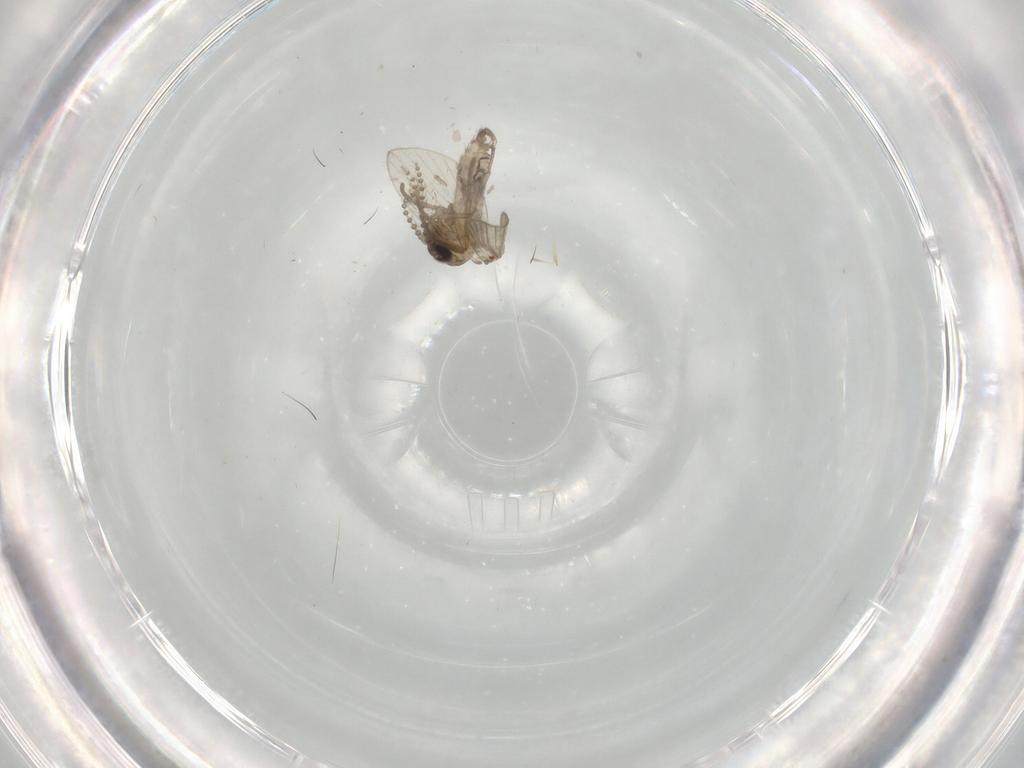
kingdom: Animalia
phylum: Arthropoda
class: Insecta
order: Diptera
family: Psychodidae
